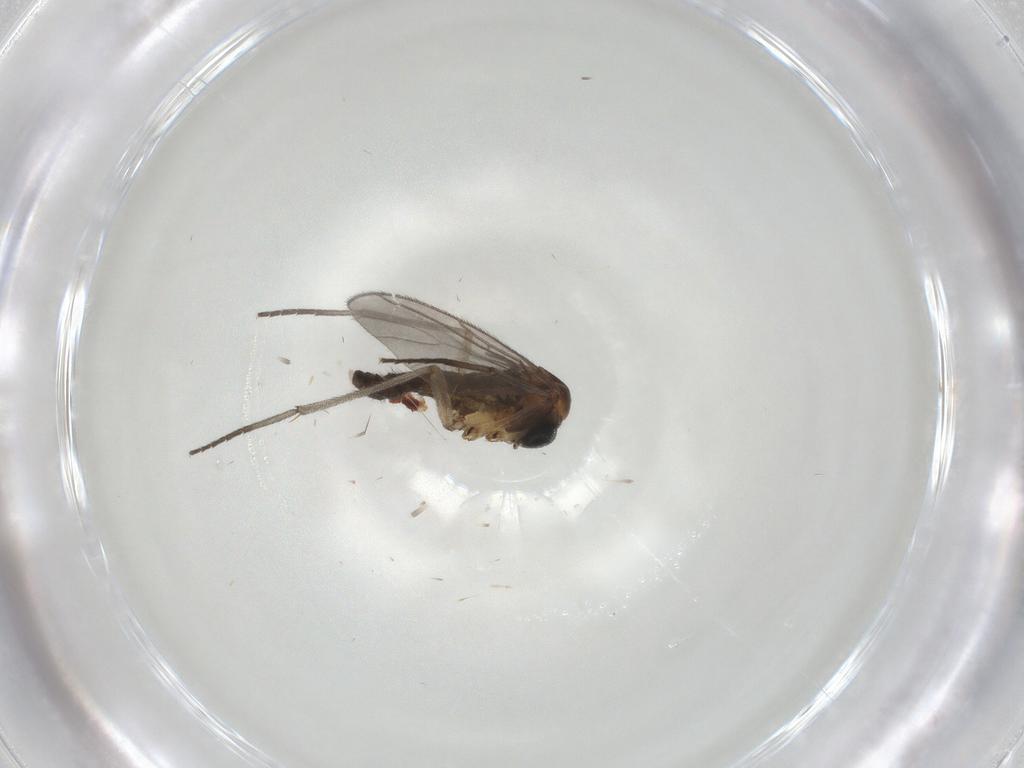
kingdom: Animalia
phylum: Arthropoda
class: Insecta
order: Diptera
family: Sciaridae
